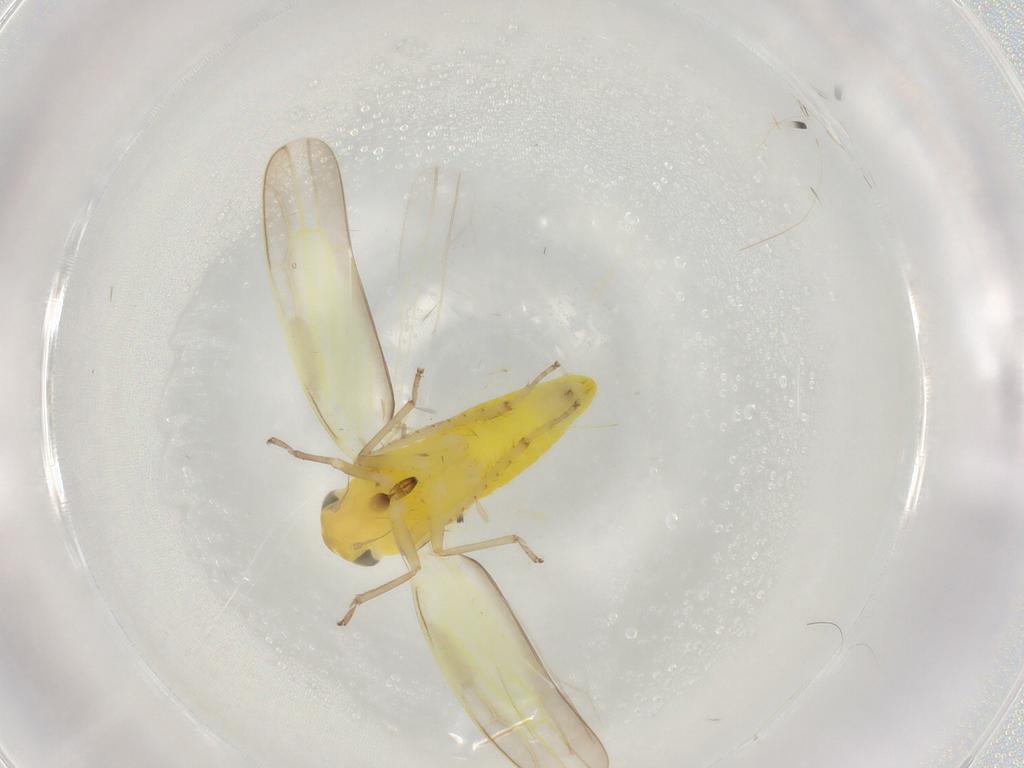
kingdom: Animalia
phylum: Arthropoda
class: Insecta
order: Hemiptera
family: Cicadellidae
